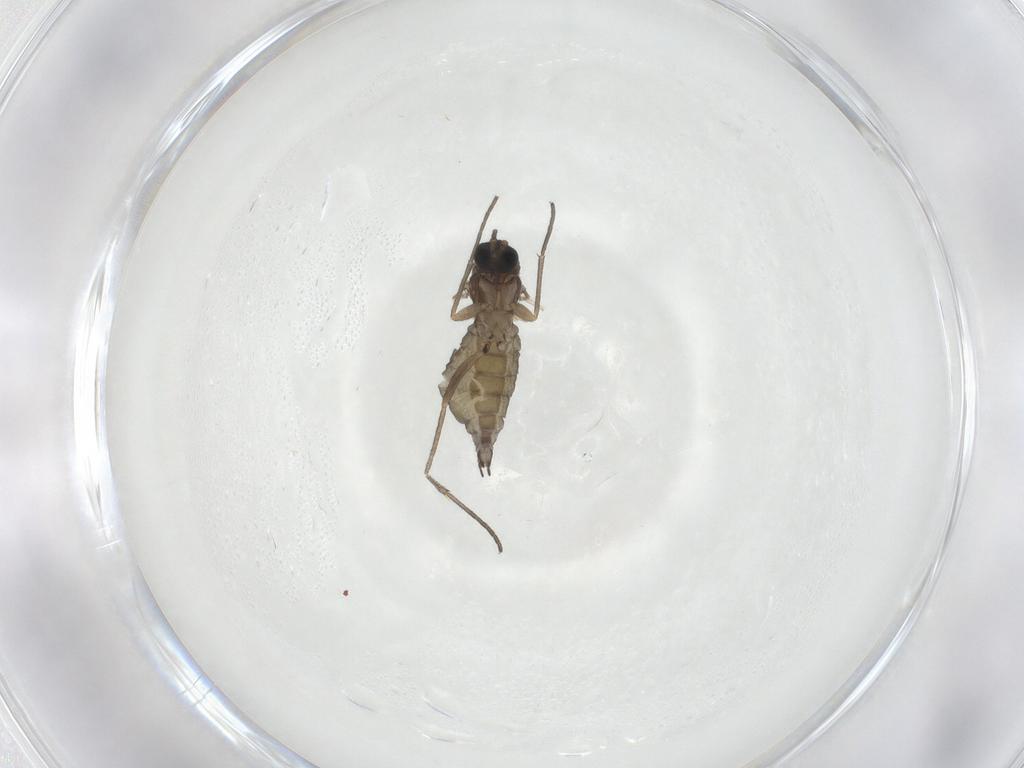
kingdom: Animalia
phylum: Arthropoda
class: Insecta
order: Diptera
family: Sciaridae
